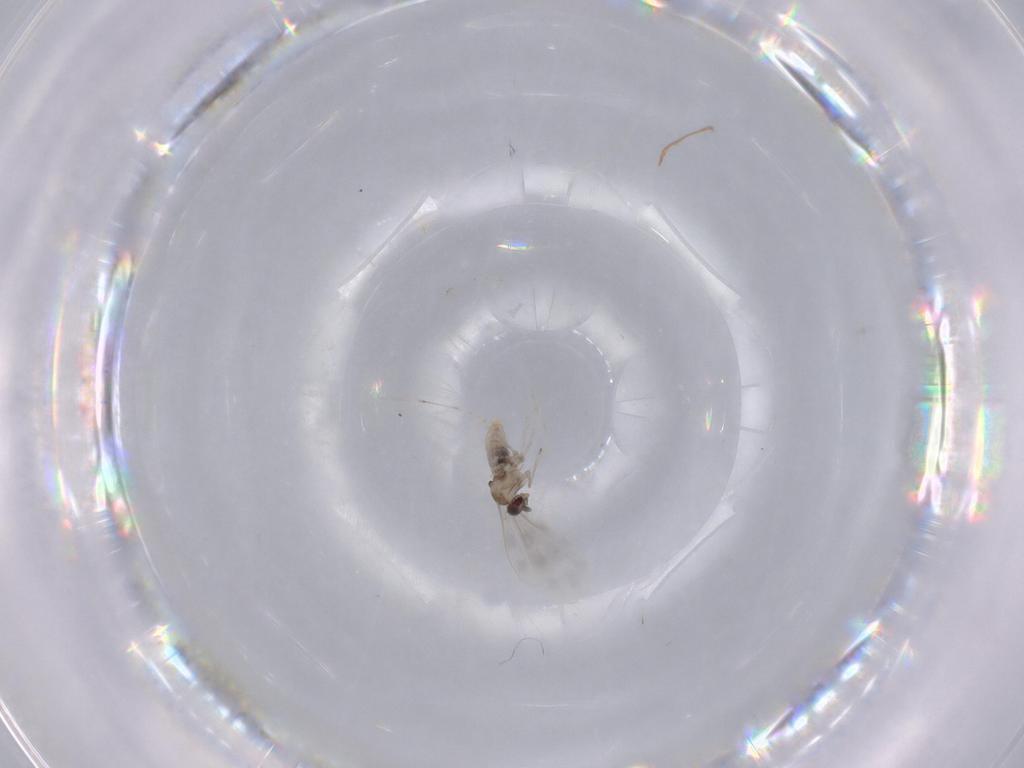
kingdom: Animalia
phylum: Arthropoda
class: Insecta
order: Diptera
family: Cecidomyiidae
